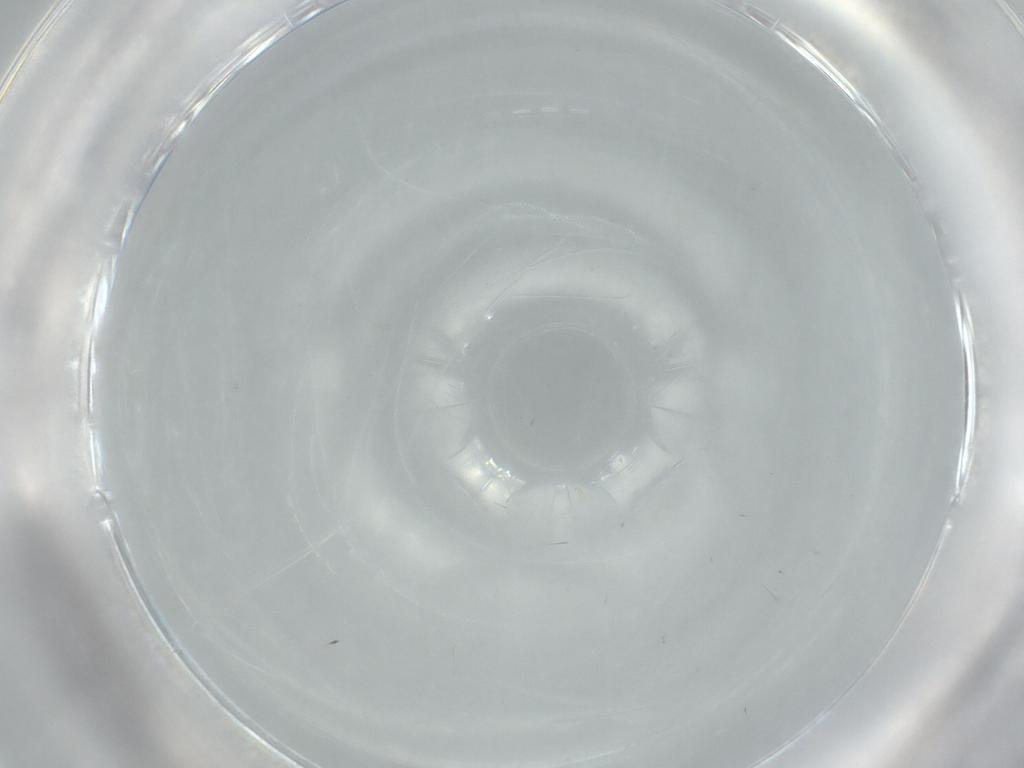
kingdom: Animalia
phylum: Arthropoda
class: Insecta
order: Diptera
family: Cecidomyiidae
